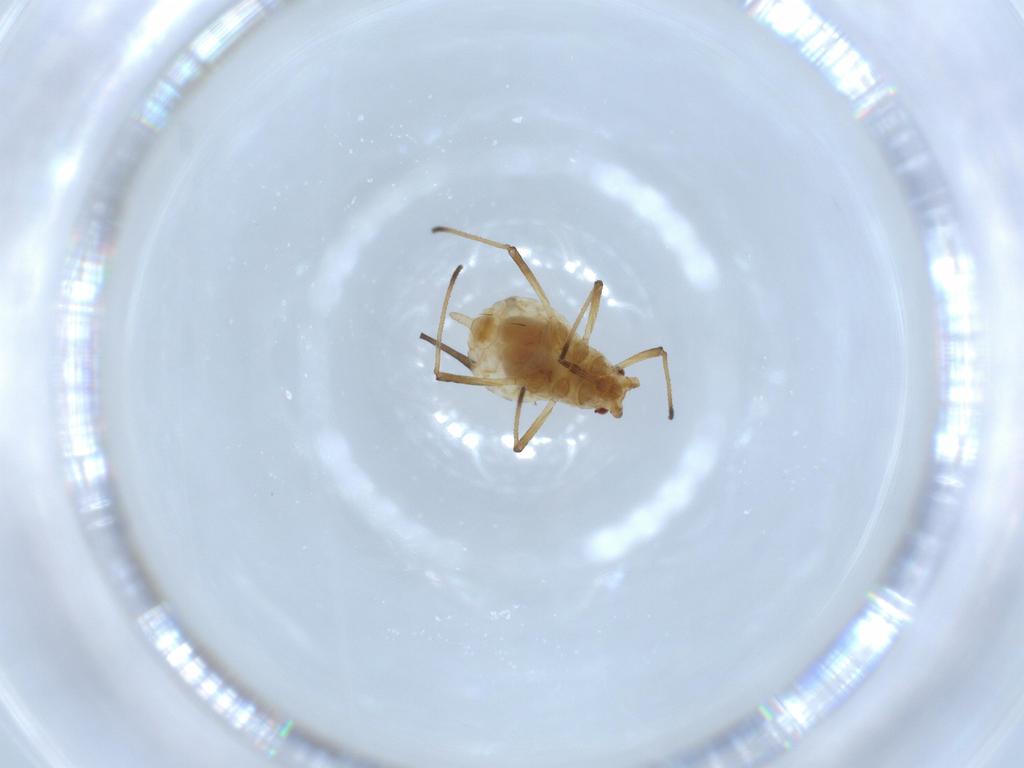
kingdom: Animalia
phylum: Arthropoda
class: Insecta
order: Hemiptera
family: Aphididae
